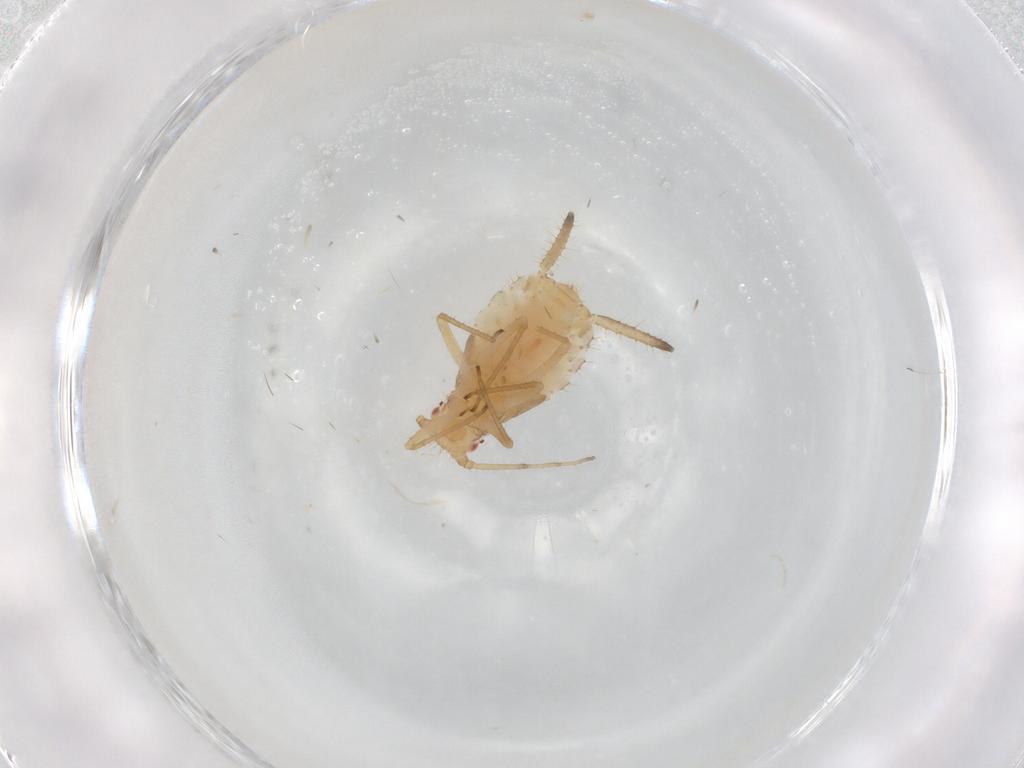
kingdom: Animalia
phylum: Arthropoda
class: Insecta
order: Hemiptera
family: Aphididae
